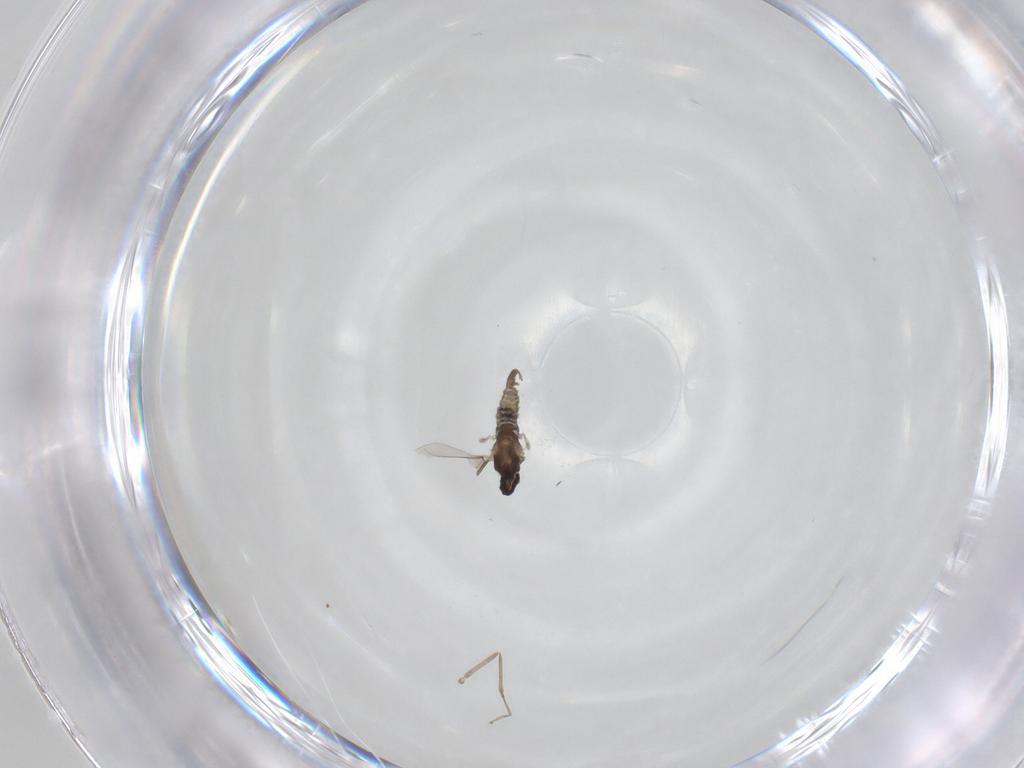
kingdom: Animalia
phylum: Arthropoda
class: Insecta
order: Diptera
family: Cecidomyiidae
